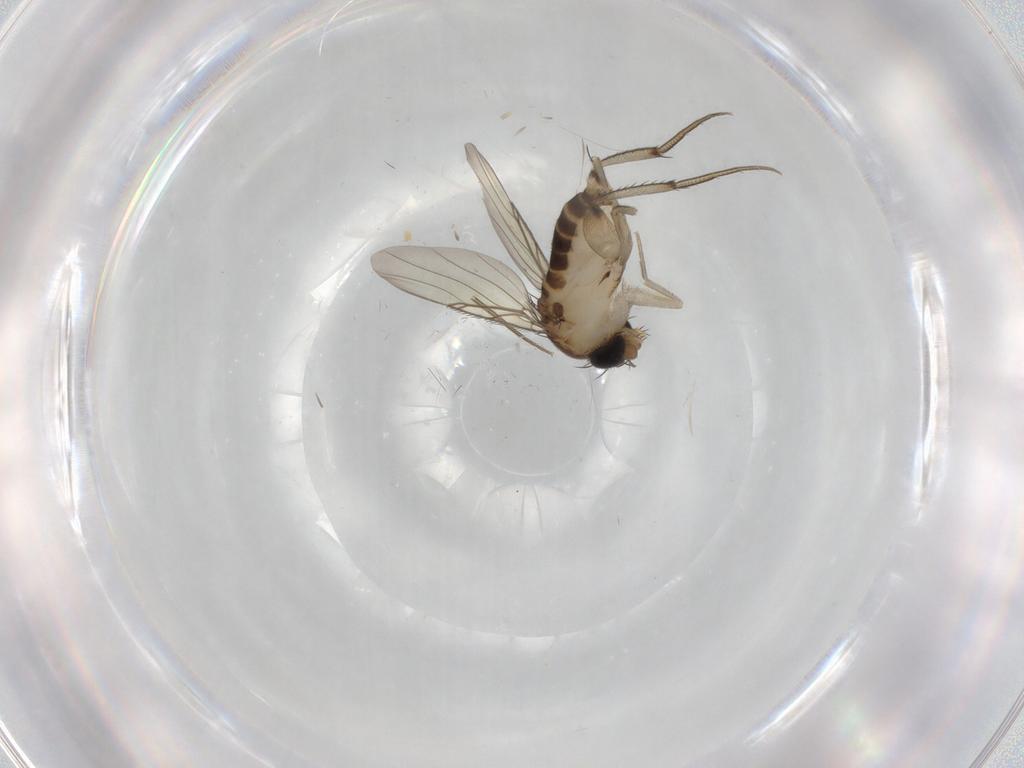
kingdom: Animalia
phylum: Arthropoda
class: Insecta
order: Diptera
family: Phoridae
